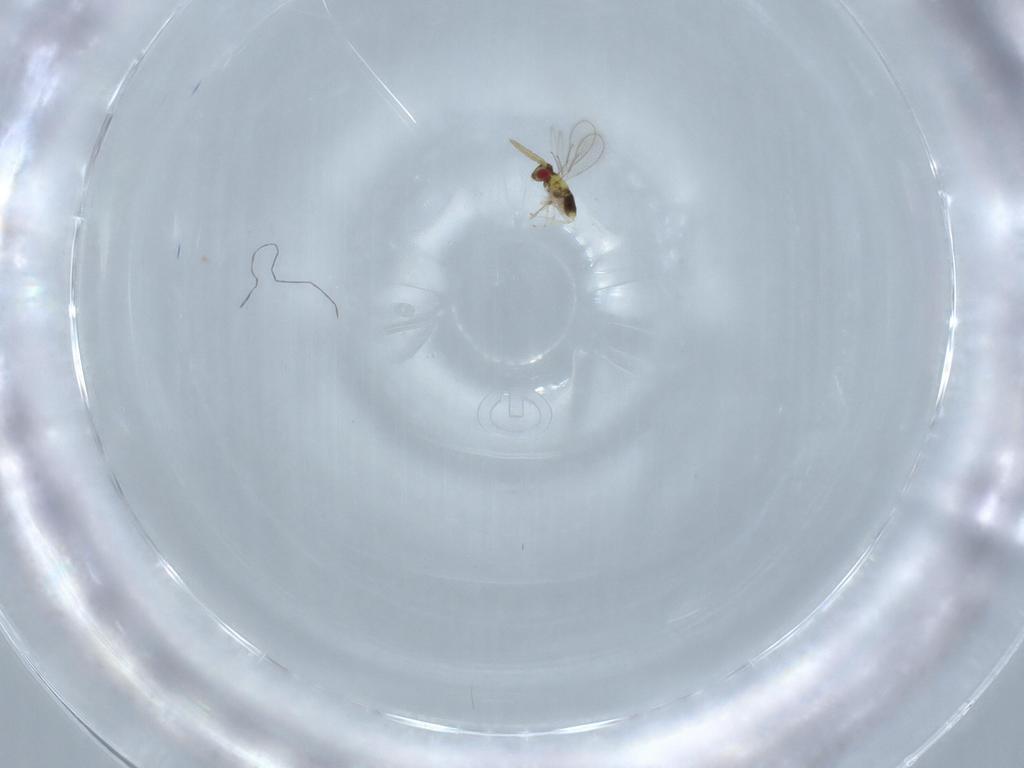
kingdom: Animalia
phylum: Arthropoda
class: Insecta
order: Hymenoptera
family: Aphelinidae
